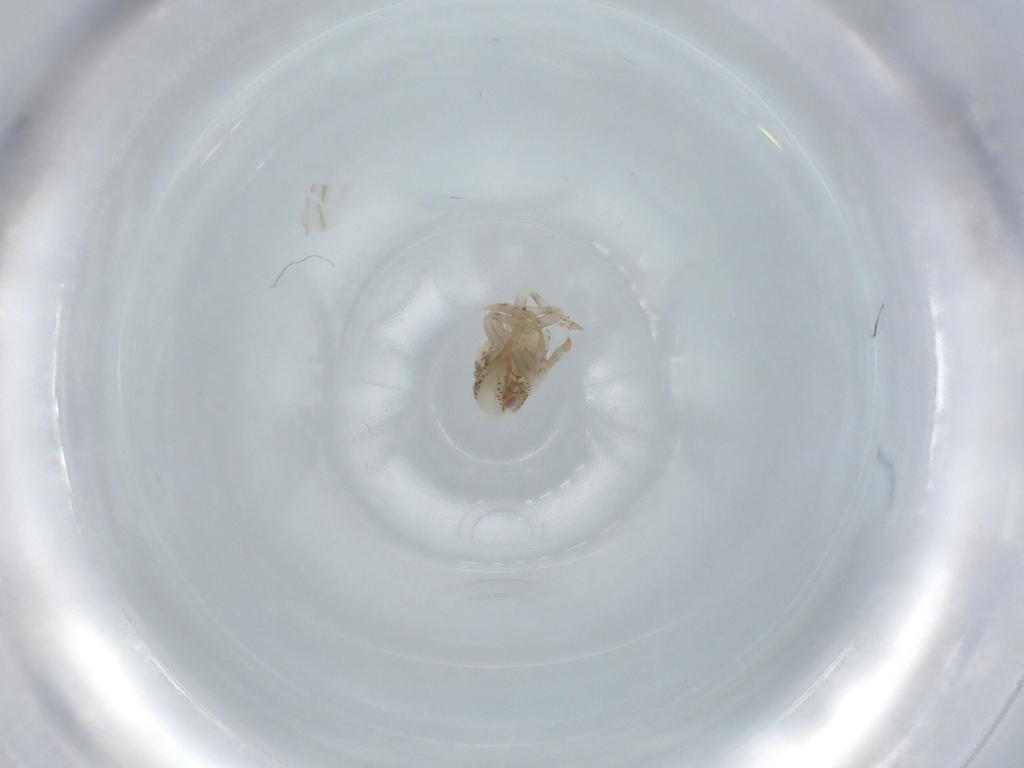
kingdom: Animalia
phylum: Arthropoda
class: Insecta
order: Hemiptera
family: Acanaloniidae
